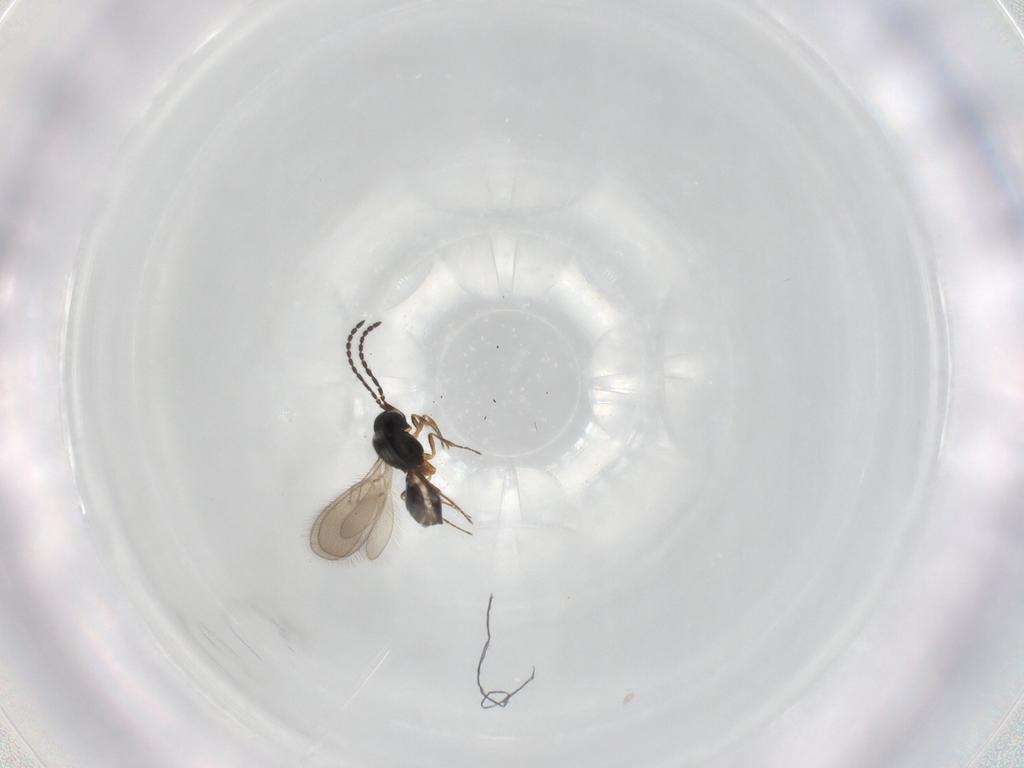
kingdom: Animalia
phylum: Arthropoda
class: Insecta
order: Hymenoptera
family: Scelionidae
